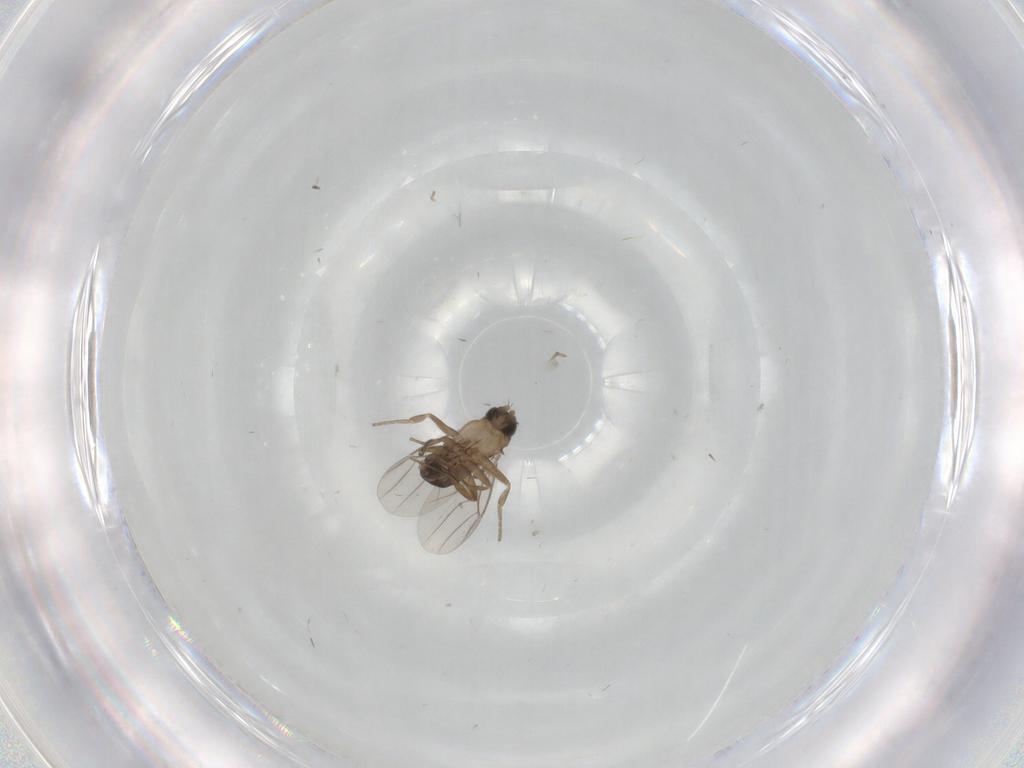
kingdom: Animalia
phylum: Arthropoda
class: Insecta
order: Diptera
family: Phoridae
